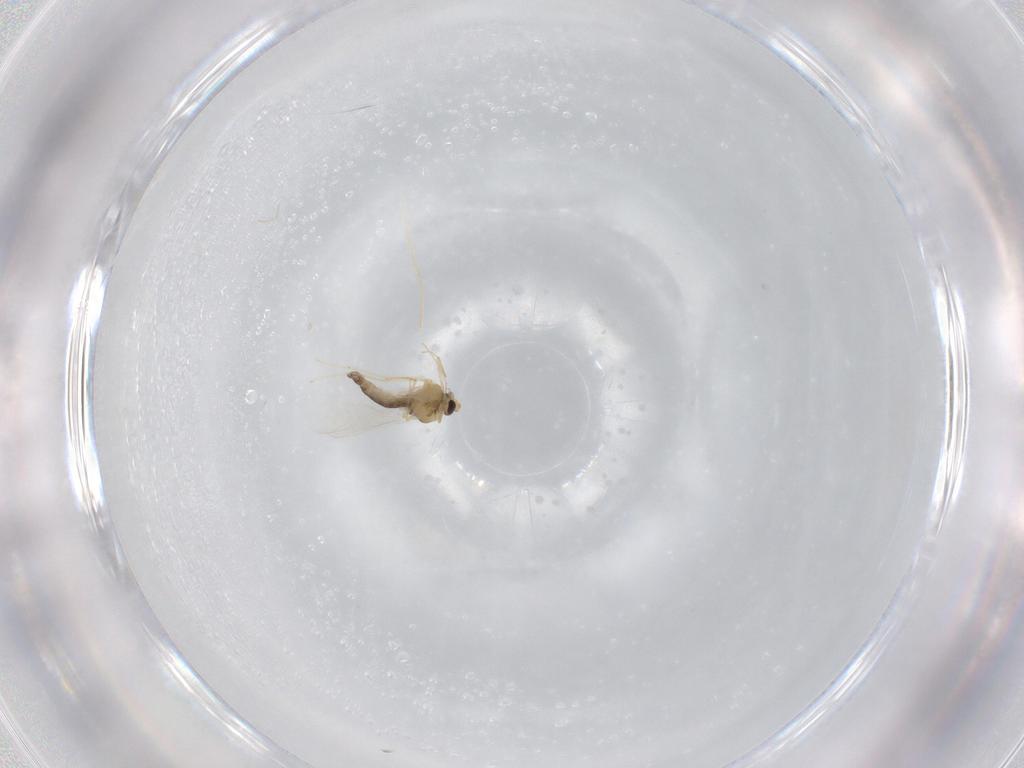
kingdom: Animalia
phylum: Arthropoda
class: Insecta
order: Diptera
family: Chironomidae
